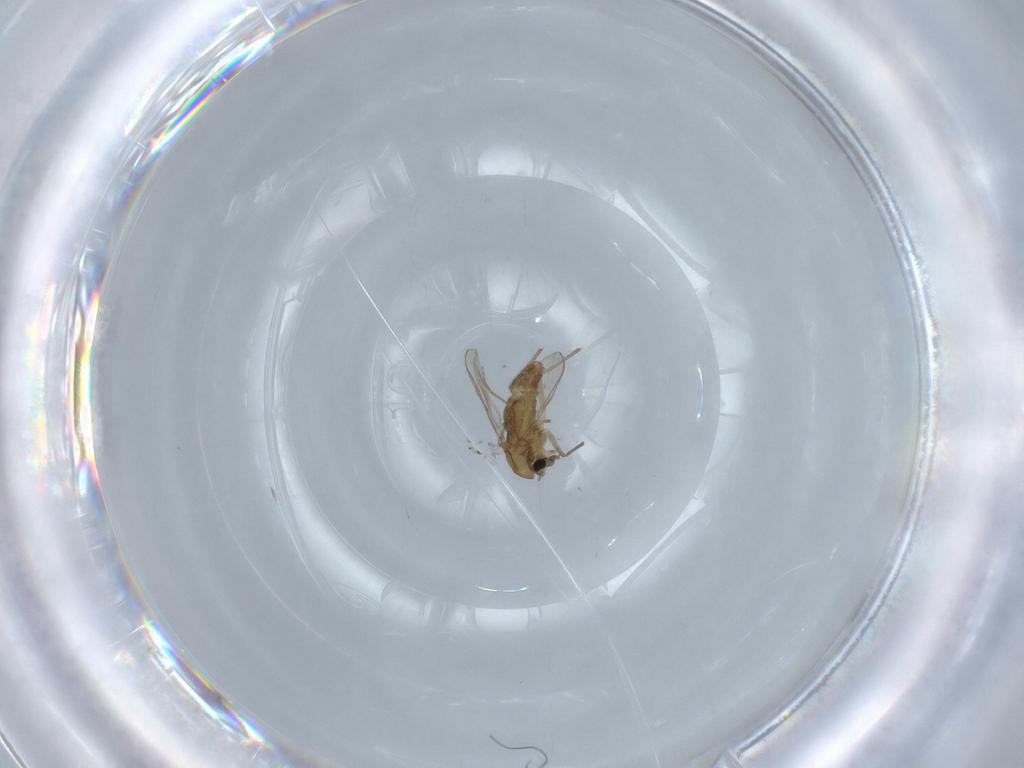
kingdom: Animalia
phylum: Arthropoda
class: Insecta
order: Diptera
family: Chironomidae
